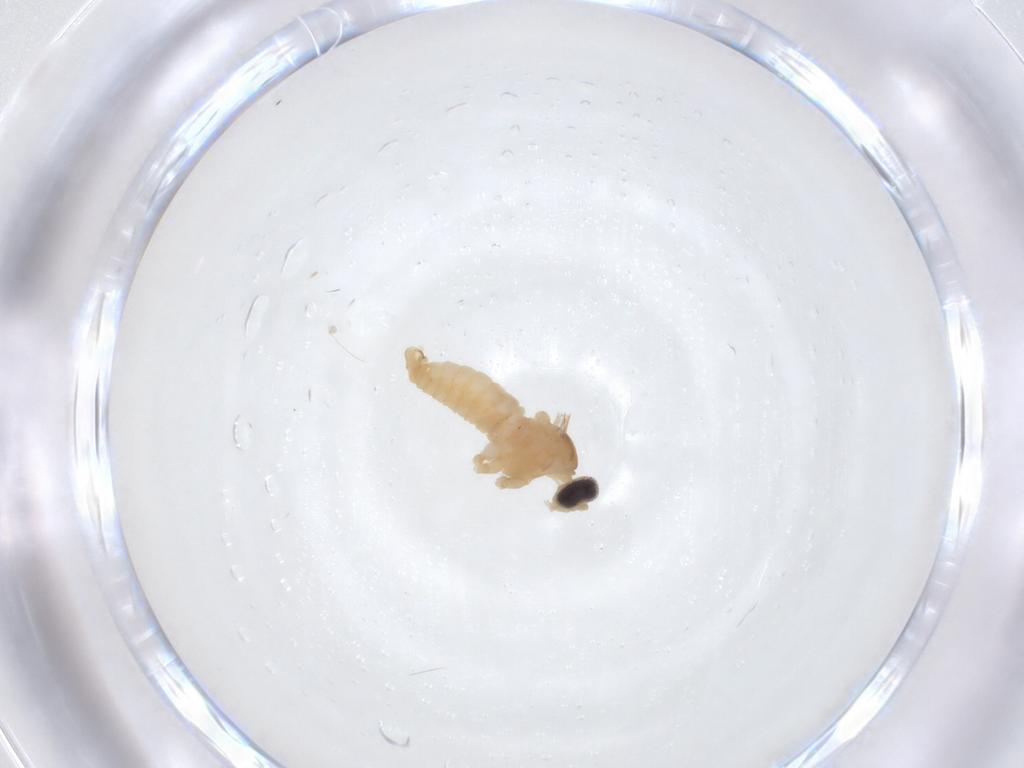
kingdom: Animalia
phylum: Arthropoda
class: Insecta
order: Diptera
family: Cecidomyiidae
